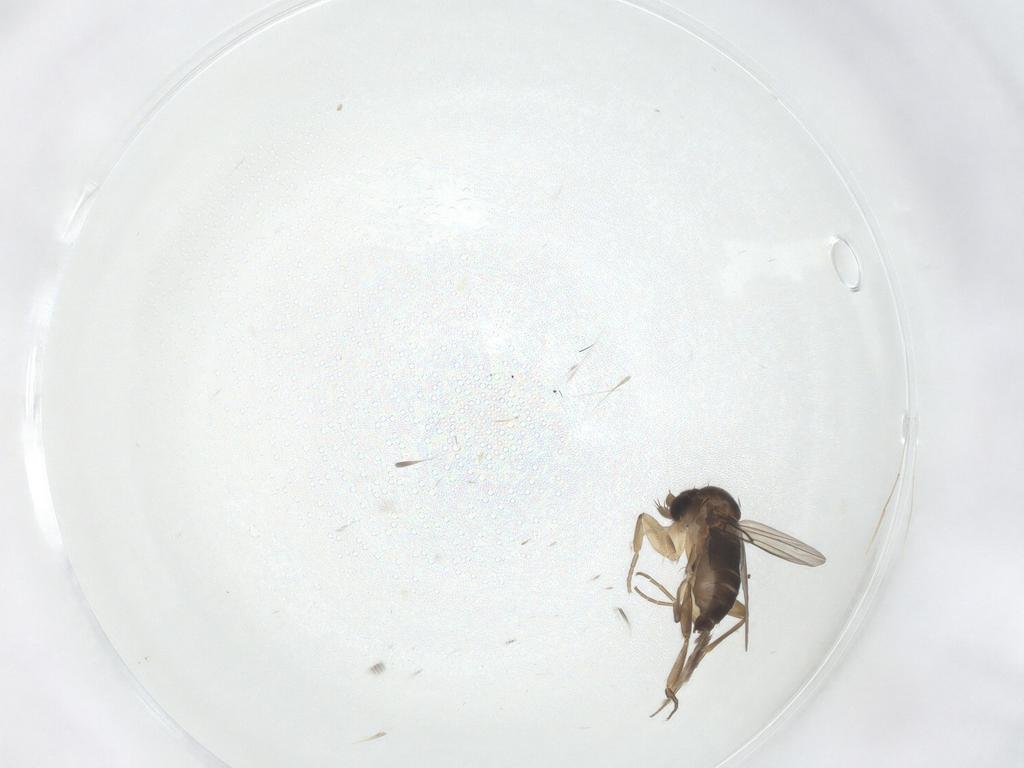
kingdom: Animalia
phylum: Arthropoda
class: Insecta
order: Diptera
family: Phoridae
